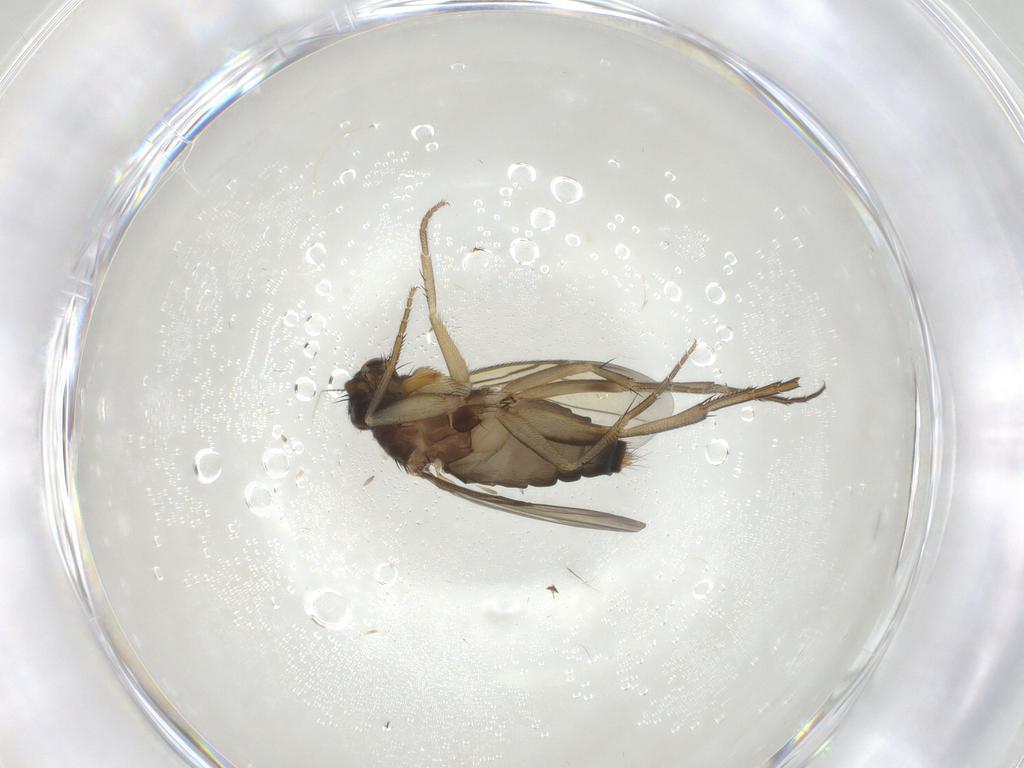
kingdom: Animalia
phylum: Arthropoda
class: Insecta
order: Diptera
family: Phoridae
